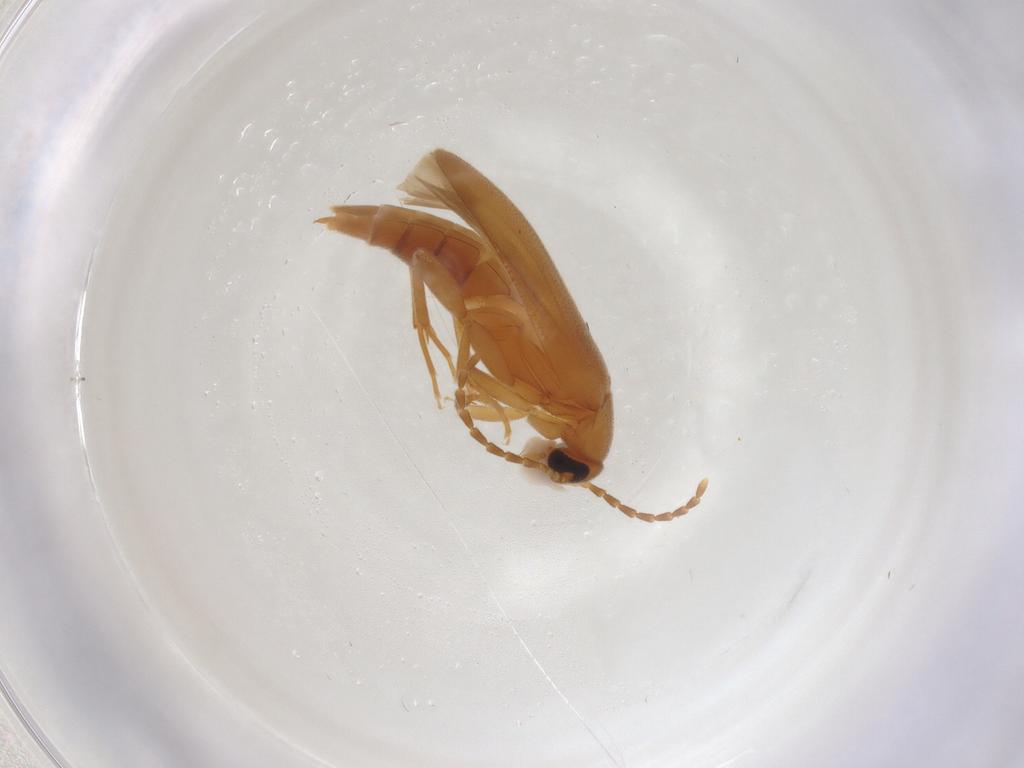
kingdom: Animalia
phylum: Arthropoda
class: Insecta
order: Coleoptera
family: Scraptiidae
